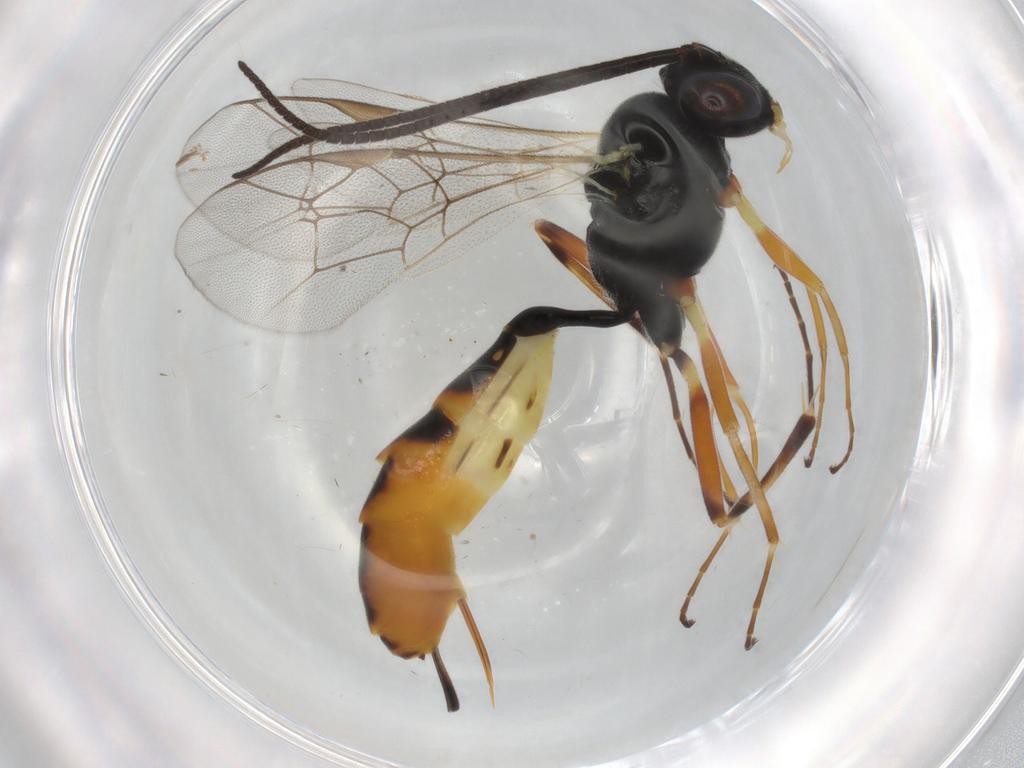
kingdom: Animalia
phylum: Arthropoda
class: Insecta
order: Hymenoptera
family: Ichneumonidae
